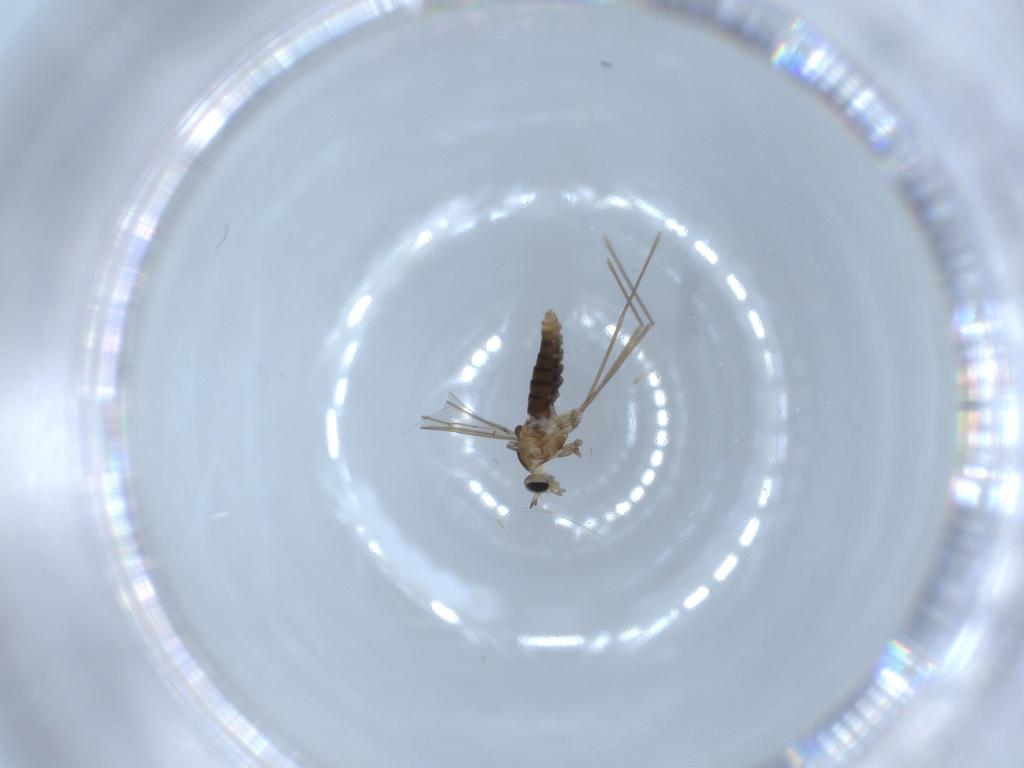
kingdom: Animalia
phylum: Arthropoda
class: Insecta
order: Diptera
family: Cecidomyiidae
